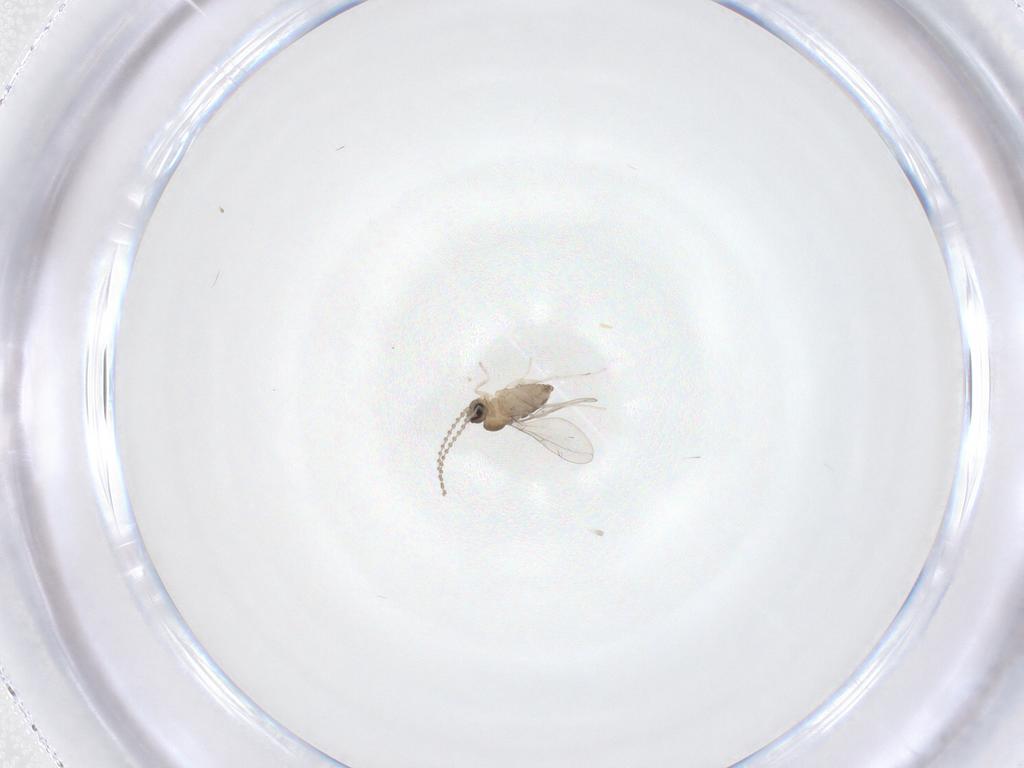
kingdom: Animalia
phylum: Arthropoda
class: Insecta
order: Diptera
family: Cecidomyiidae
